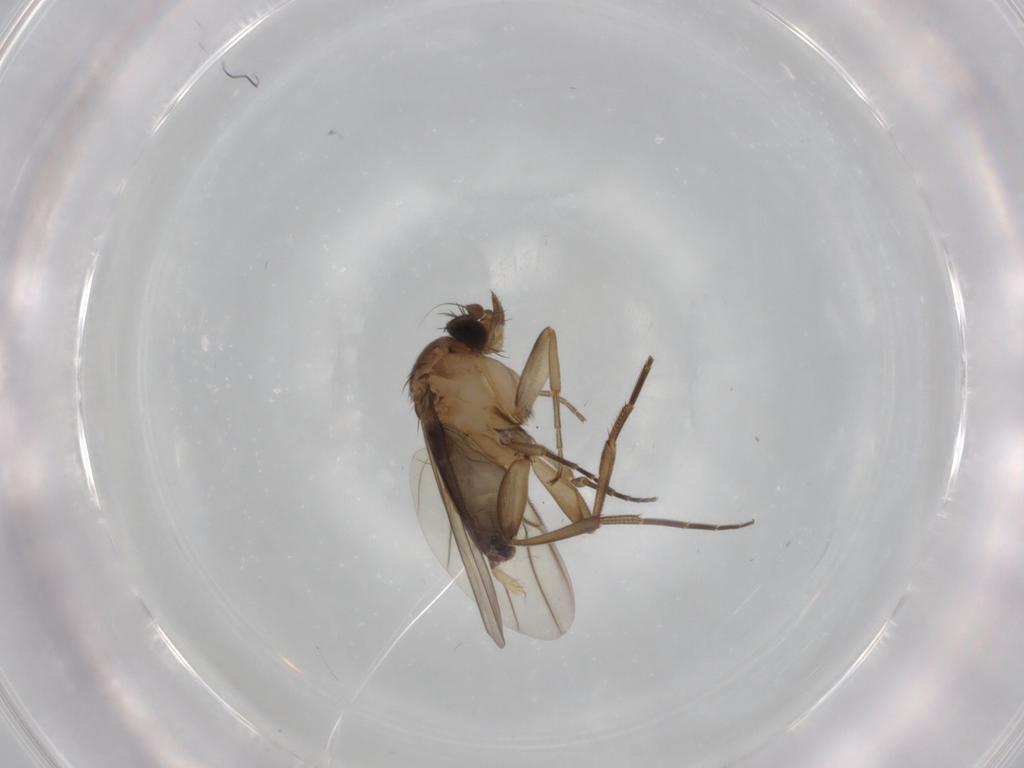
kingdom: Animalia
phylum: Arthropoda
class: Insecta
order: Diptera
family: Phoridae
